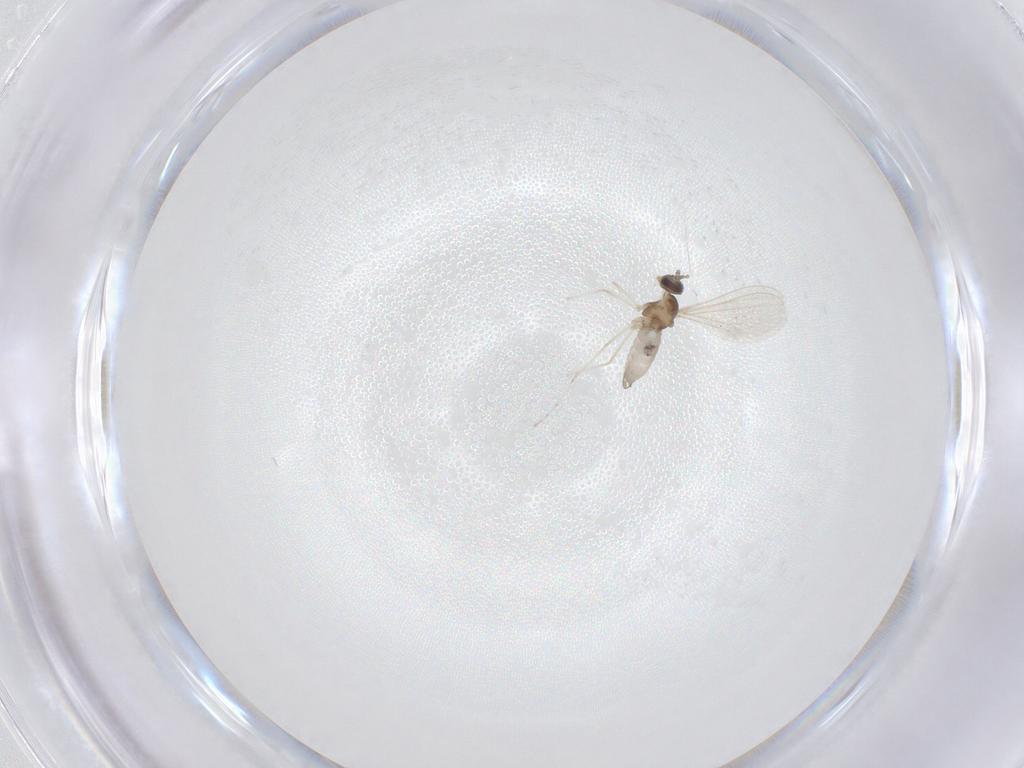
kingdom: Animalia
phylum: Arthropoda
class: Insecta
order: Diptera
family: Cecidomyiidae
